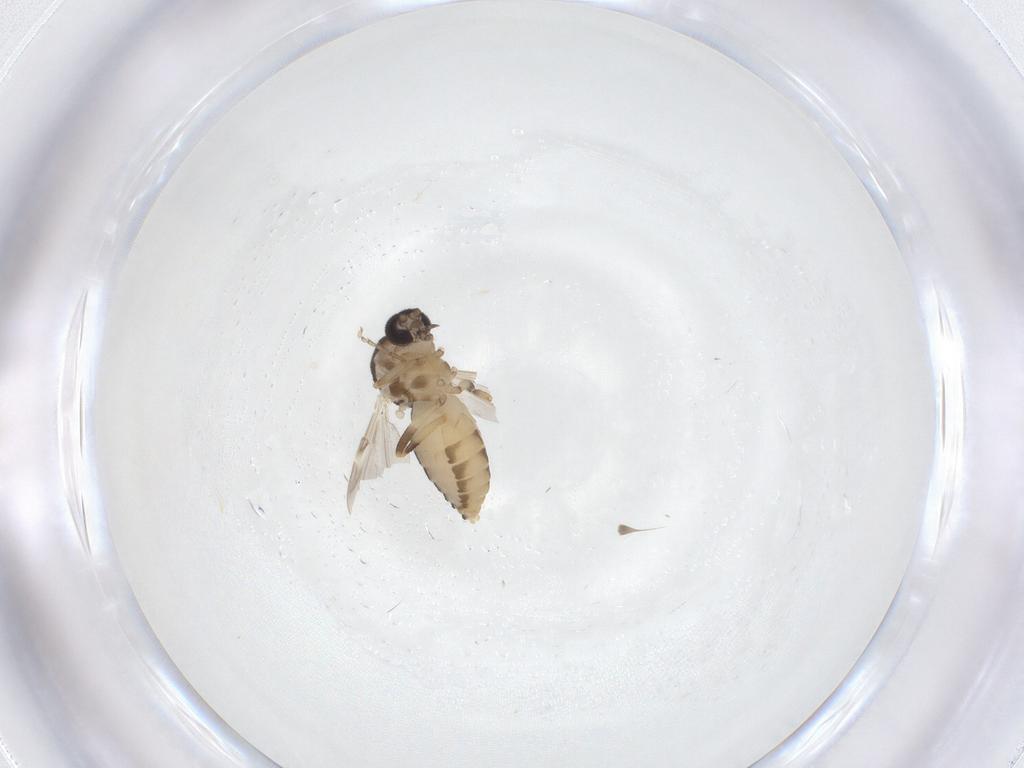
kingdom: Animalia
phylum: Arthropoda
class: Insecta
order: Diptera
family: Ceratopogonidae
